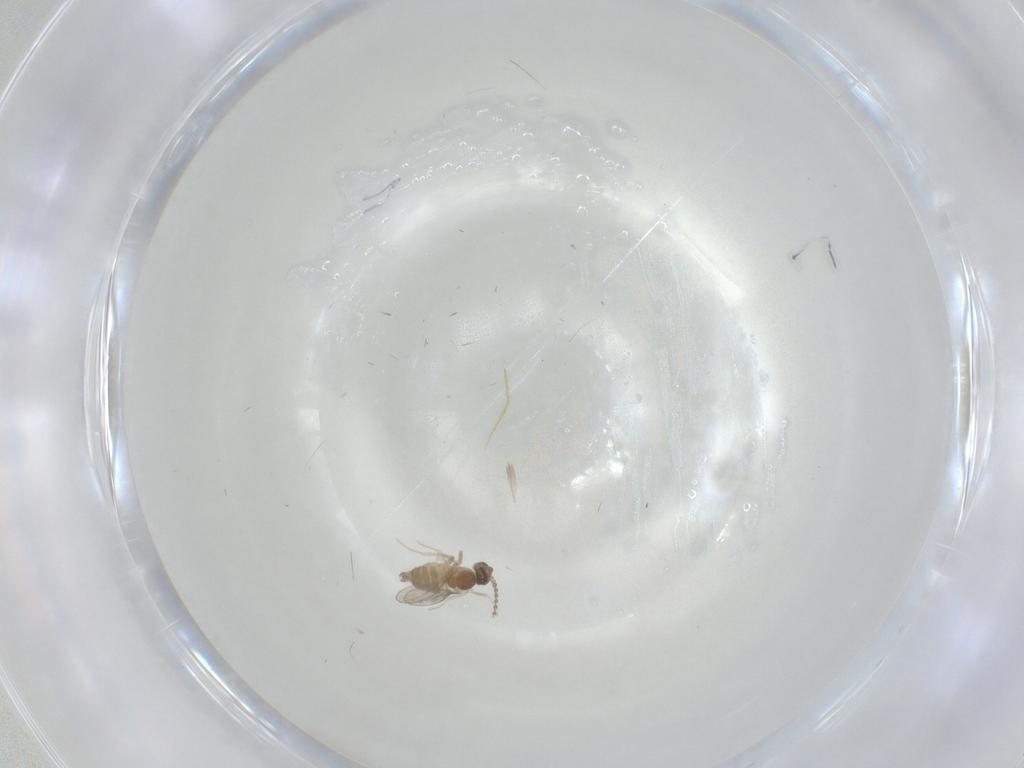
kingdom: Animalia
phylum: Arthropoda
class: Insecta
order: Diptera
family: Cecidomyiidae
